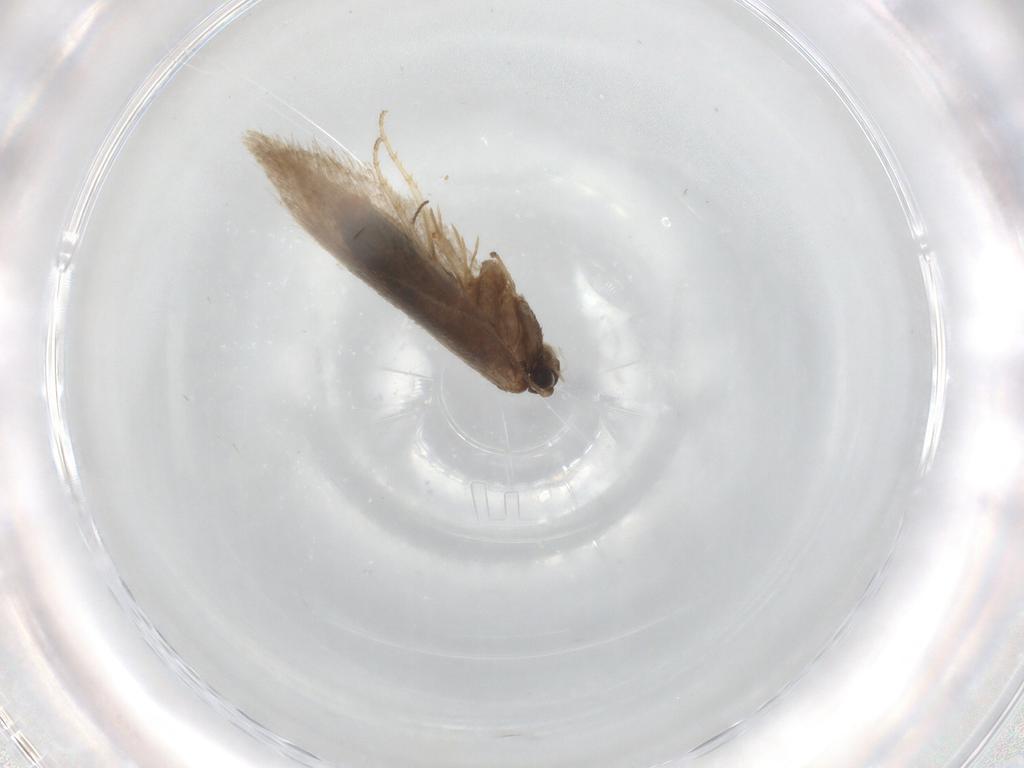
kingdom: Animalia
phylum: Arthropoda
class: Insecta
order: Lepidoptera
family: Nepticulidae
